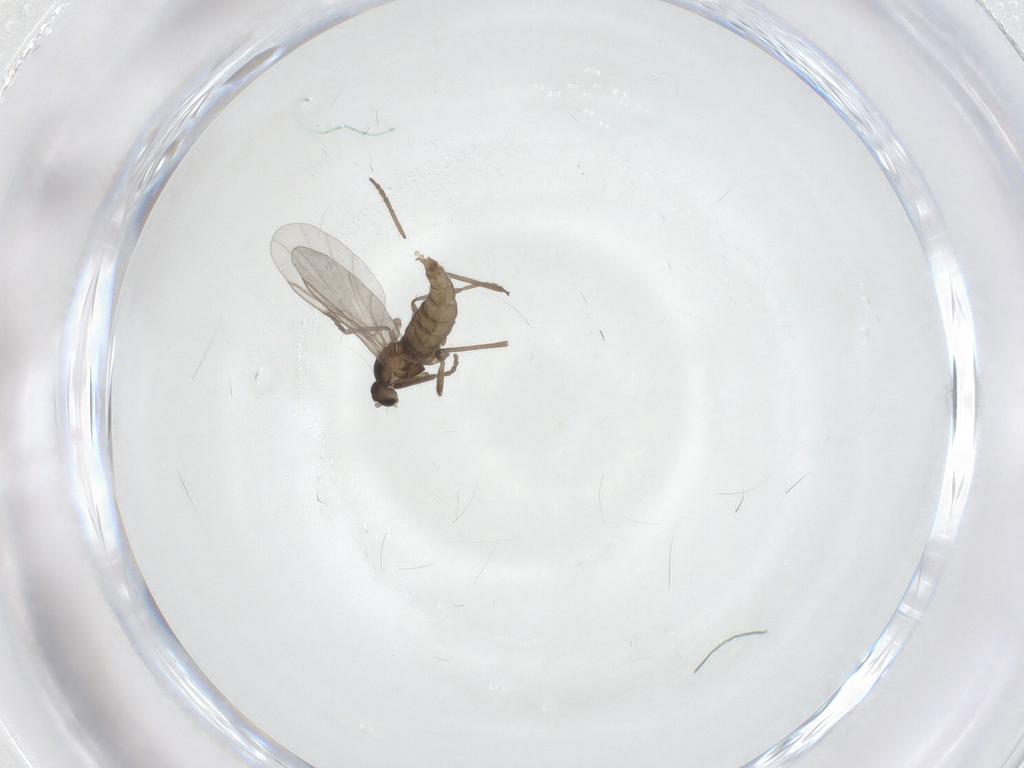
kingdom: Animalia
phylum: Arthropoda
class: Insecta
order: Diptera
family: Cecidomyiidae
